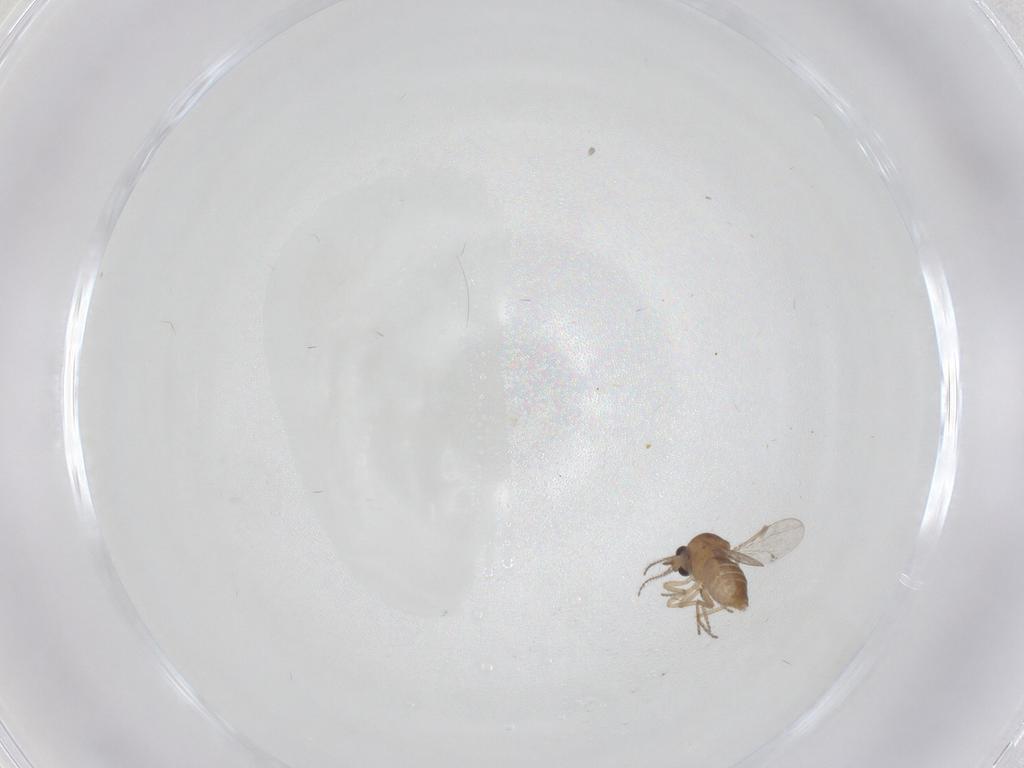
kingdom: Animalia
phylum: Arthropoda
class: Insecta
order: Diptera
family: Ceratopogonidae
